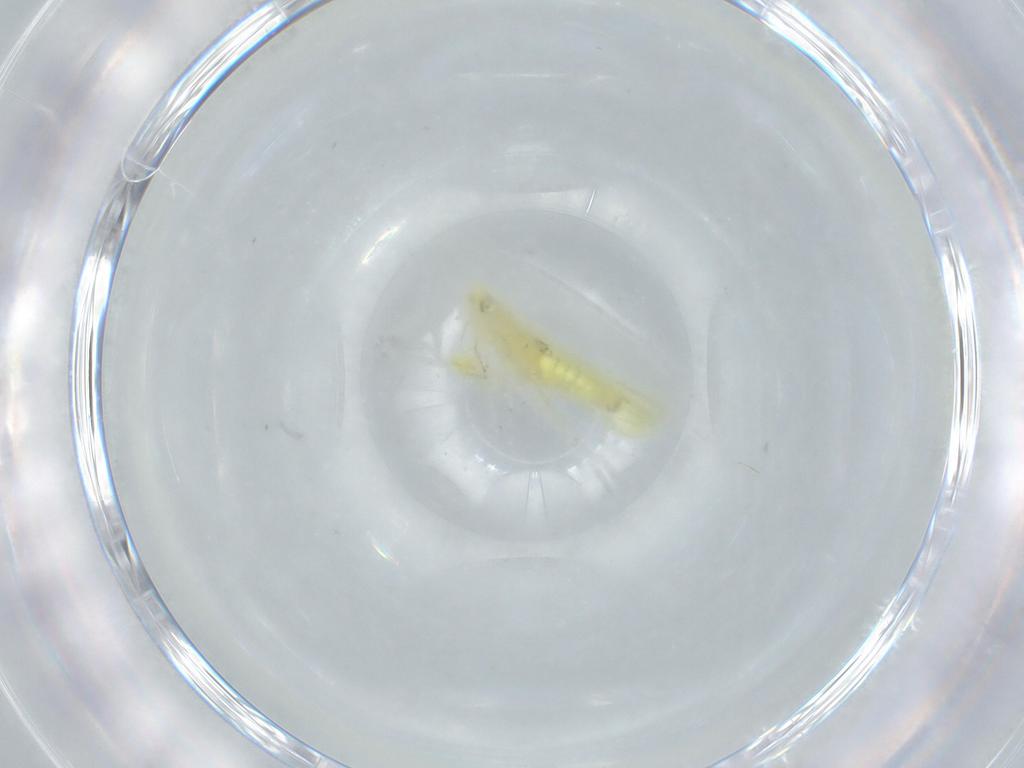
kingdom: Animalia
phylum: Arthropoda
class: Insecta
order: Hemiptera
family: Cicadellidae
